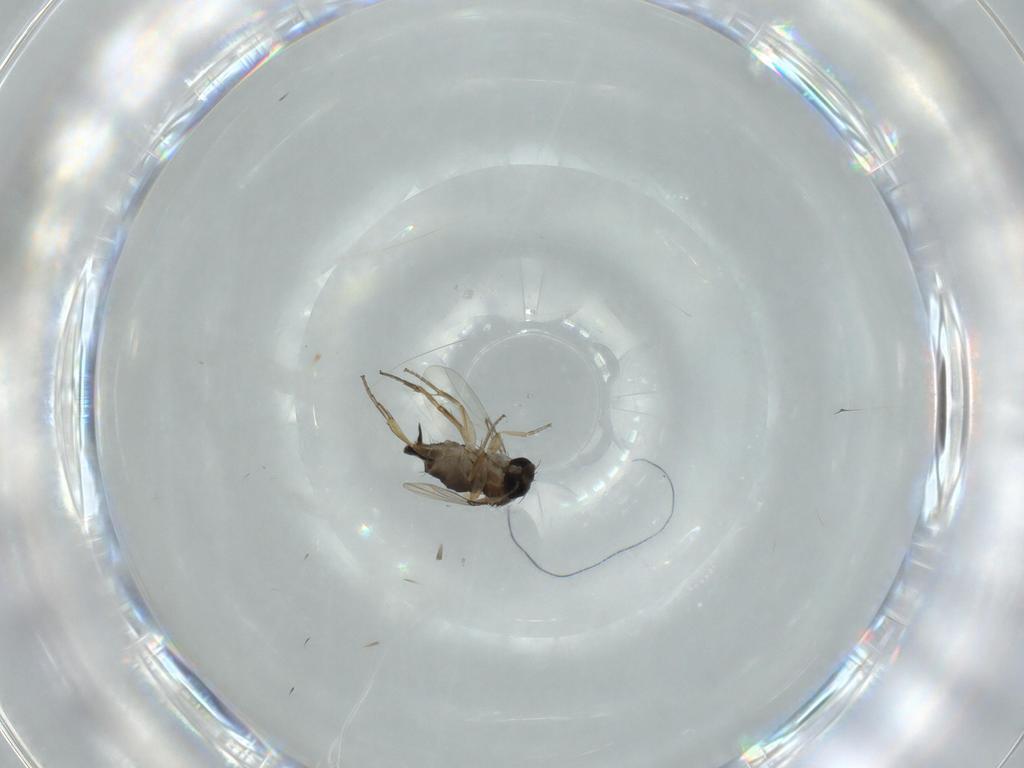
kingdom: Animalia
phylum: Arthropoda
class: Insecta
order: Diptera
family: Phoridae
